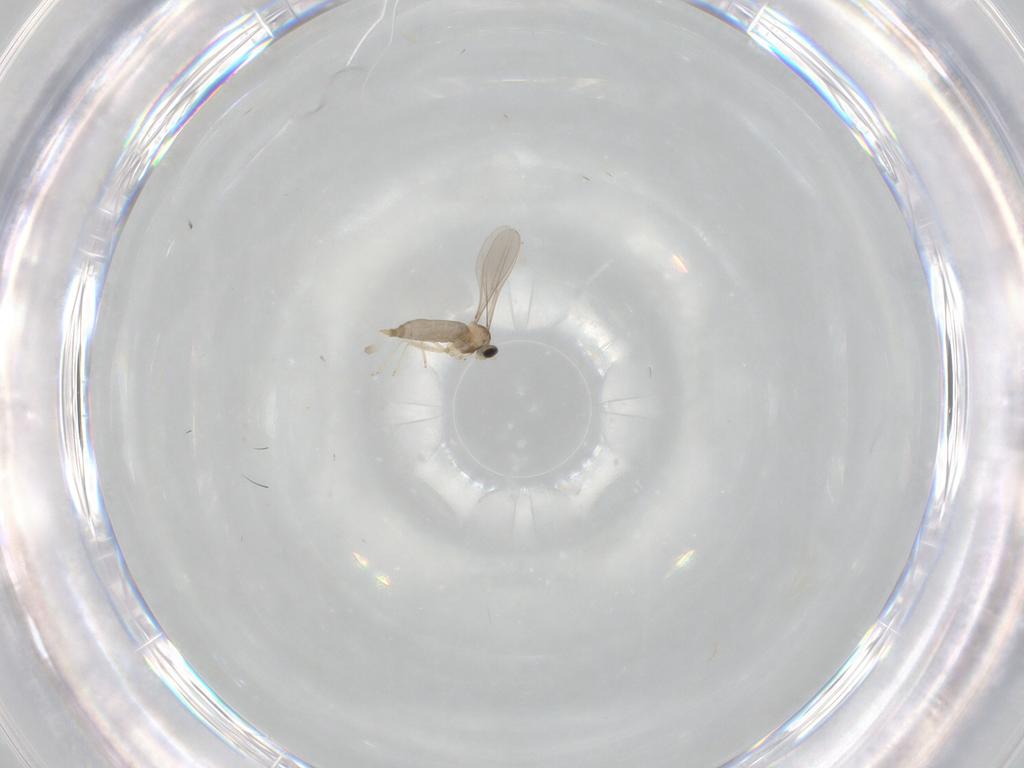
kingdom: Animalia
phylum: Arthropoda
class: Insecta
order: Diptera
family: Cecidomyiidae
